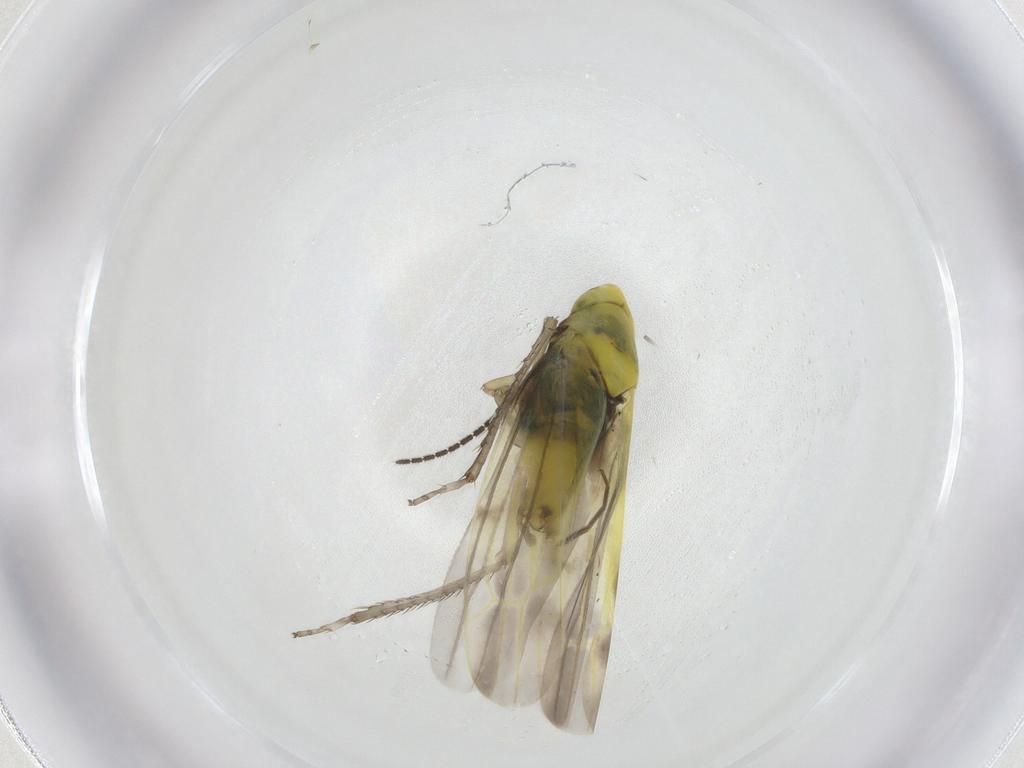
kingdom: Animalia
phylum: Arthropoda
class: Insecta
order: Hemiptera
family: Cicadellidae
